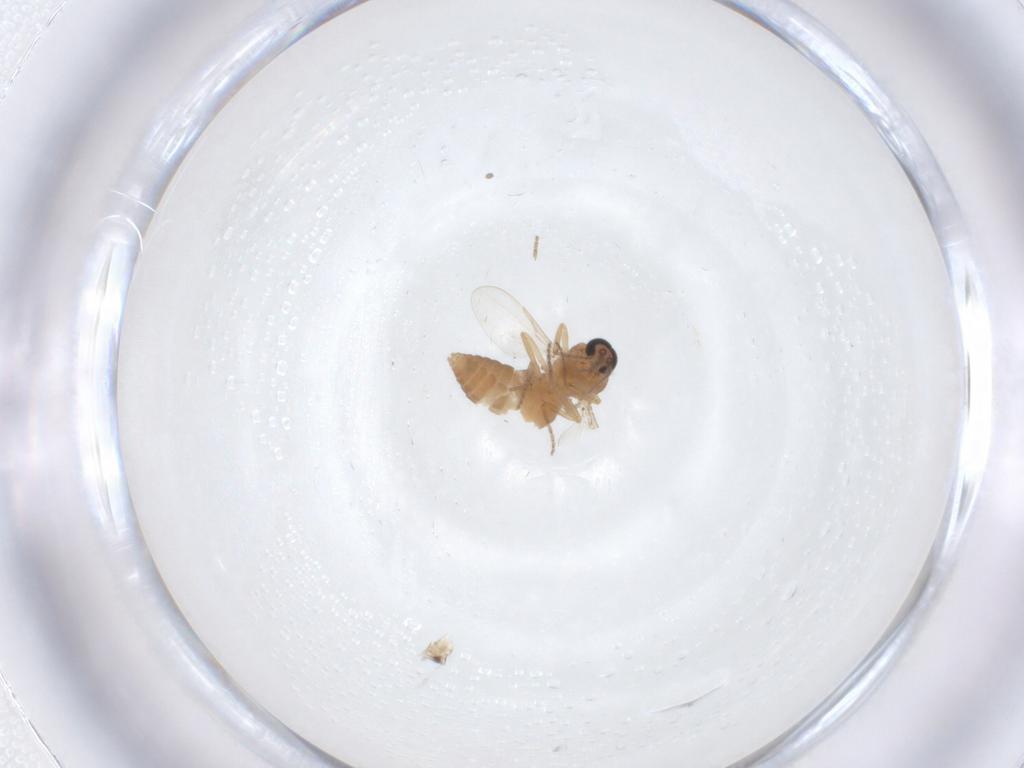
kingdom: Animalia
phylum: Arthropoda
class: Insecta
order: Diptera
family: Ceratopogonidae
